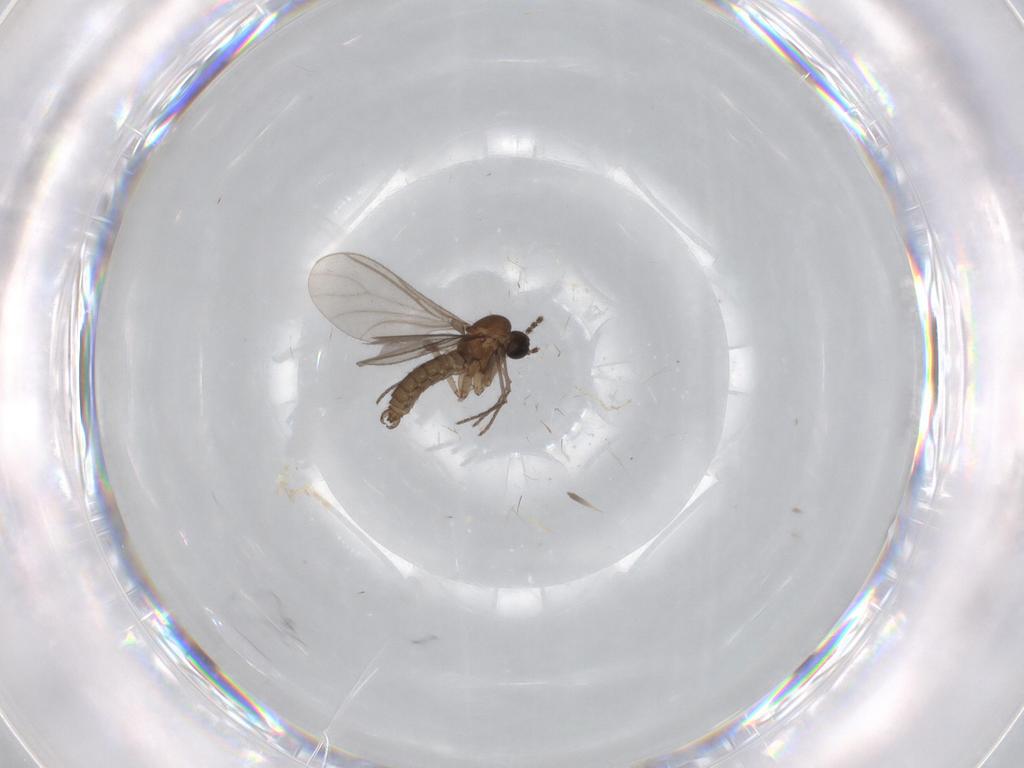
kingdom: Animalia
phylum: Arthropoda
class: Insecta
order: Diptera
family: Sciaridae
